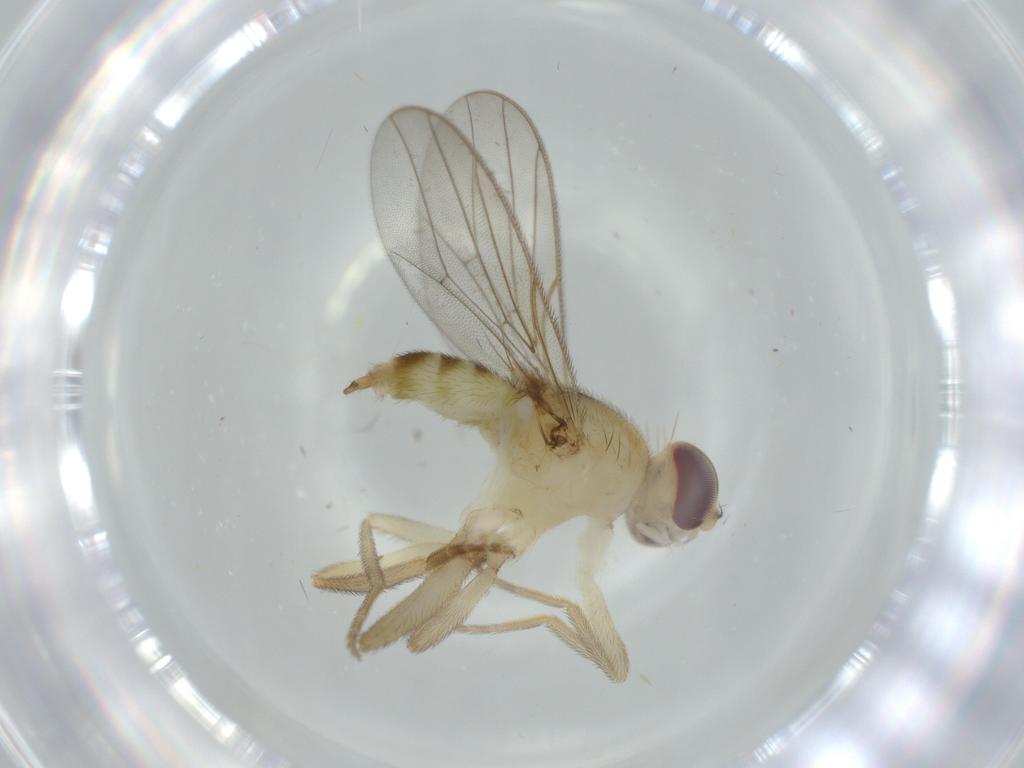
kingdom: Animalia
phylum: Arthropoda
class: Insecta
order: Diptera
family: Chloropidae
